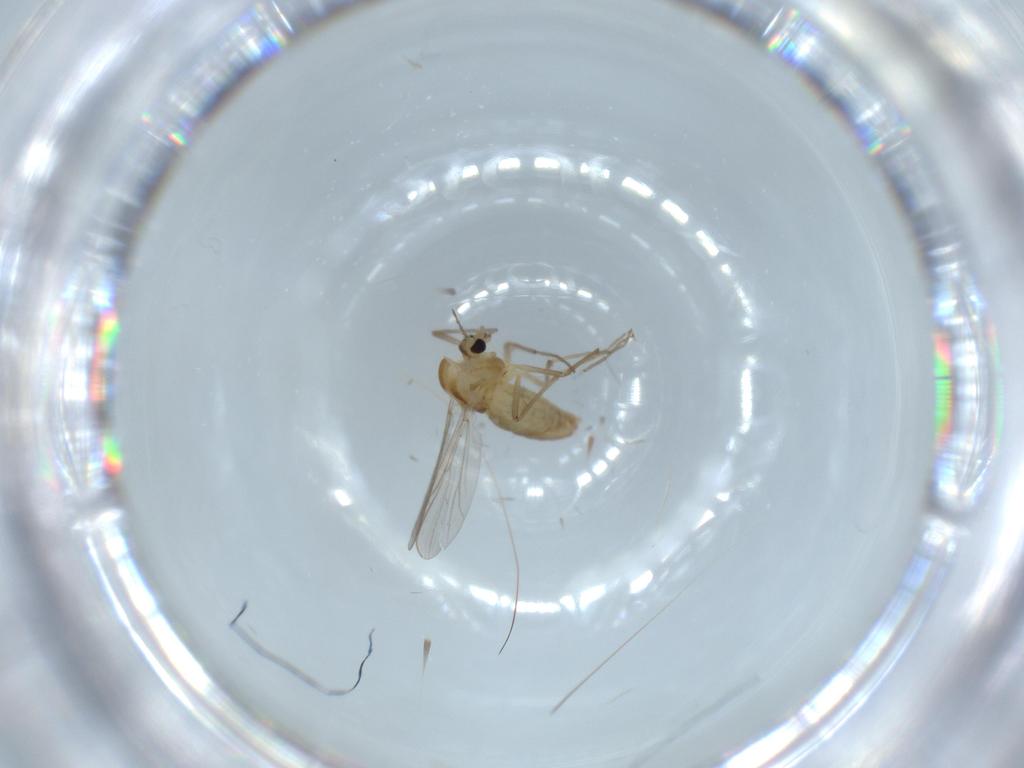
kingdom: Animalia
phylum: Arthropoda
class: Insecta
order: Diptera
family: Chironomidae
